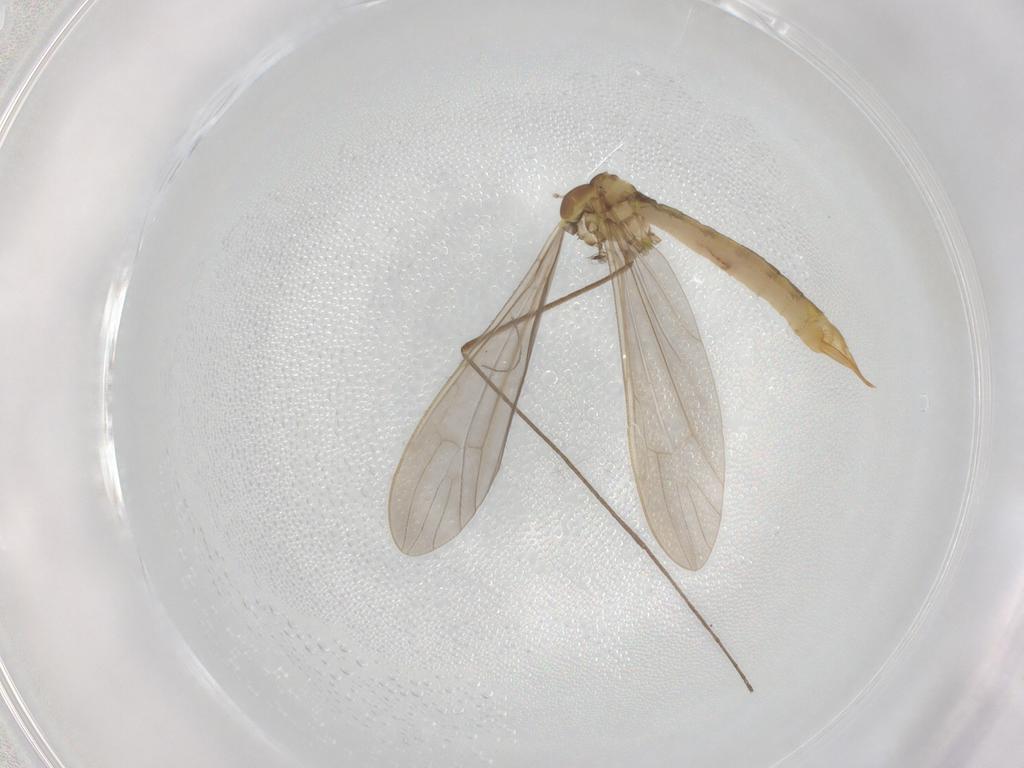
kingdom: Animalia
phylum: Arthropoda
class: Insecta
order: Diptera
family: Limoniidae
